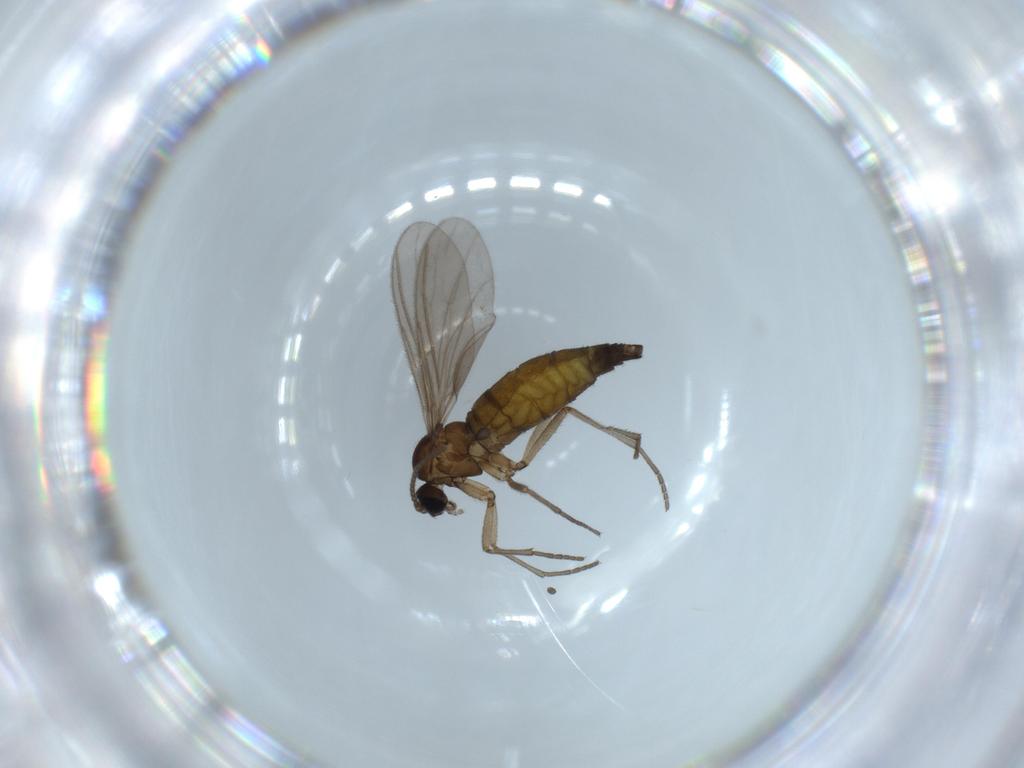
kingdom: Animalia
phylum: Arthropoda
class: Insecta
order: Diptera
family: Sciaridae
